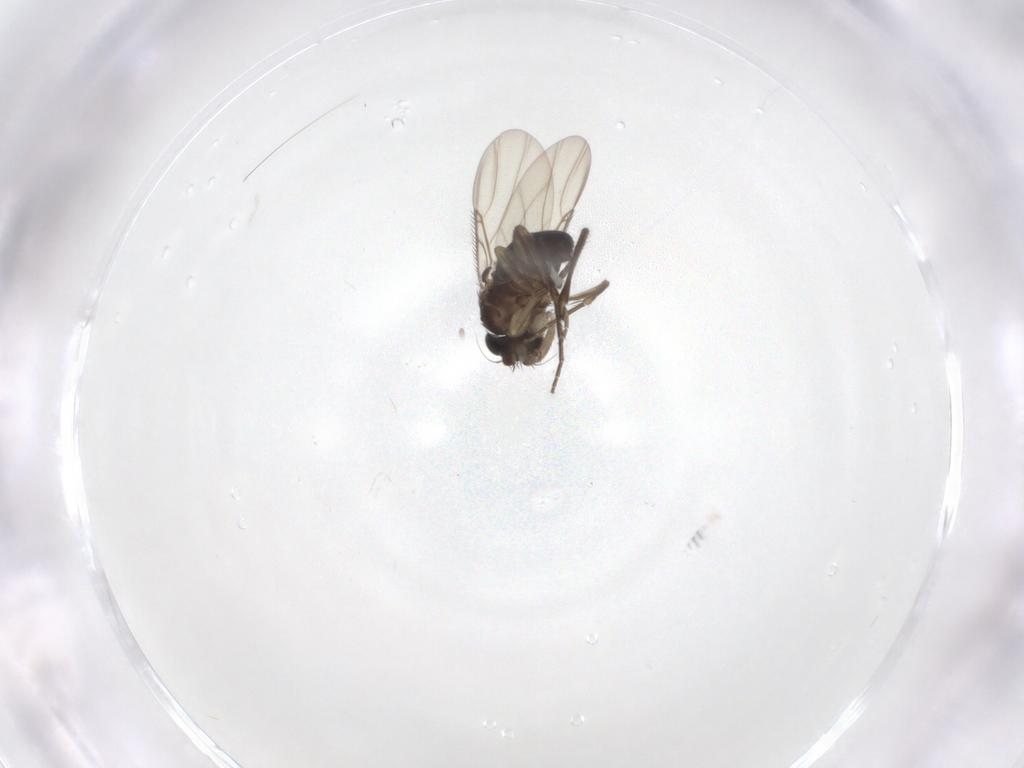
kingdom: Animalia
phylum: Arthropoda
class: Insecta
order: Diptera
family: Phoridae
